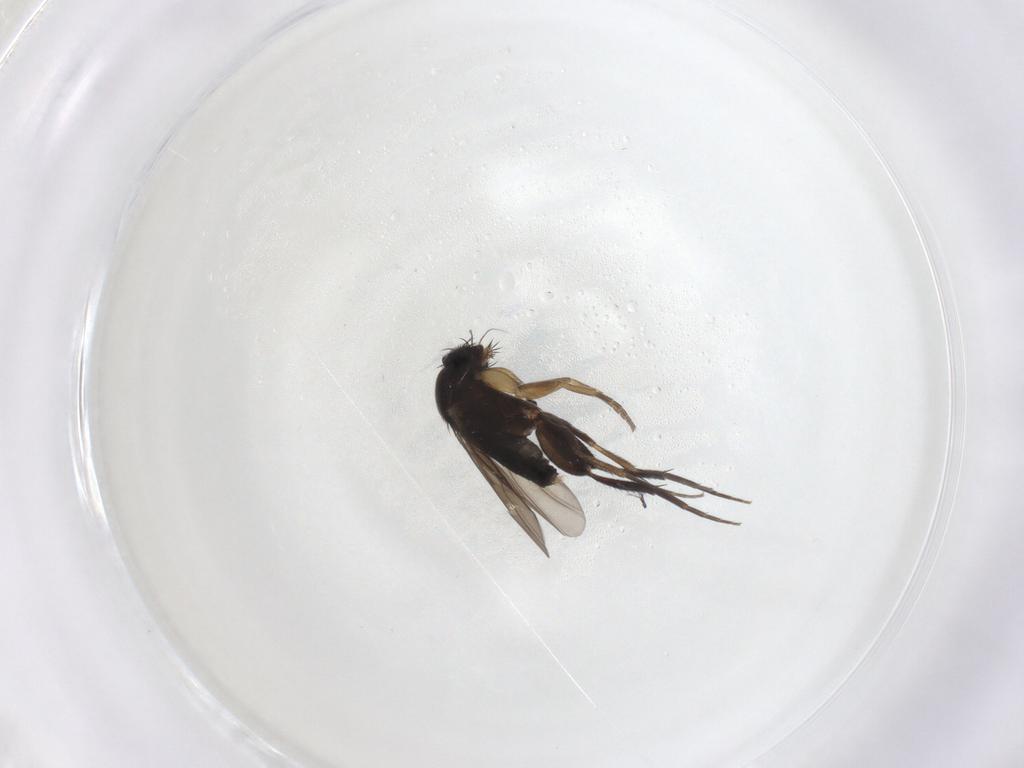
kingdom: Animalia
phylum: Arthropoda
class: Insecta
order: Diptera
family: Phoridae
